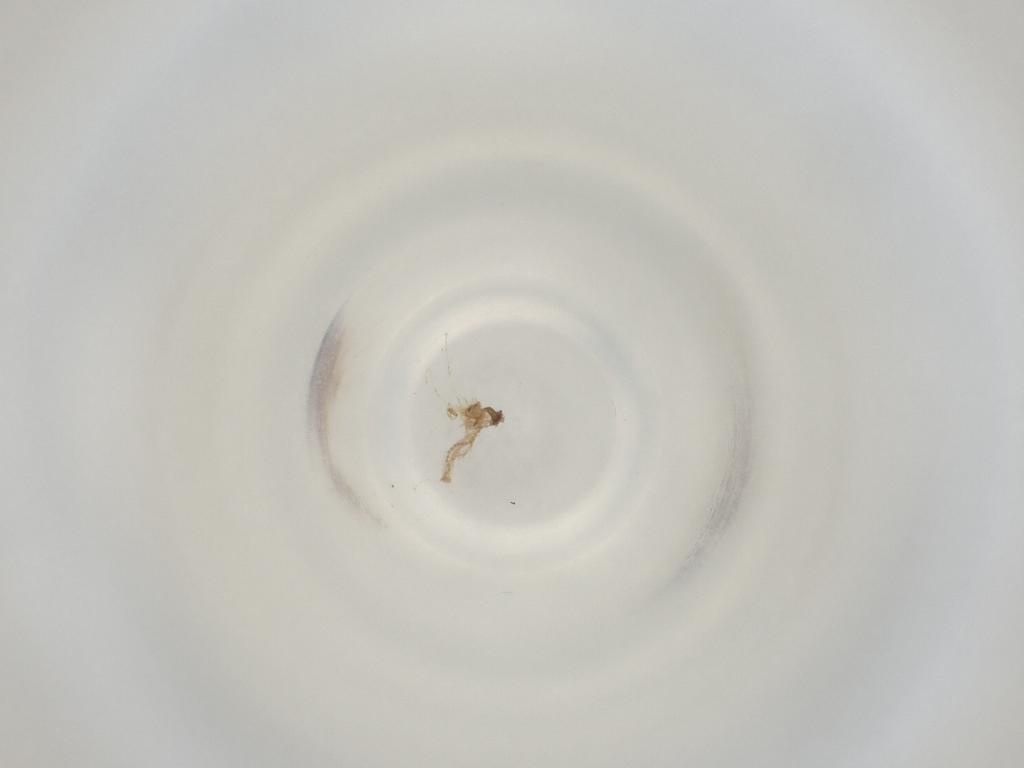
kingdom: Animalia
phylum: Arthropoda
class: Insecta
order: Diptera
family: Cecidomyiidae
